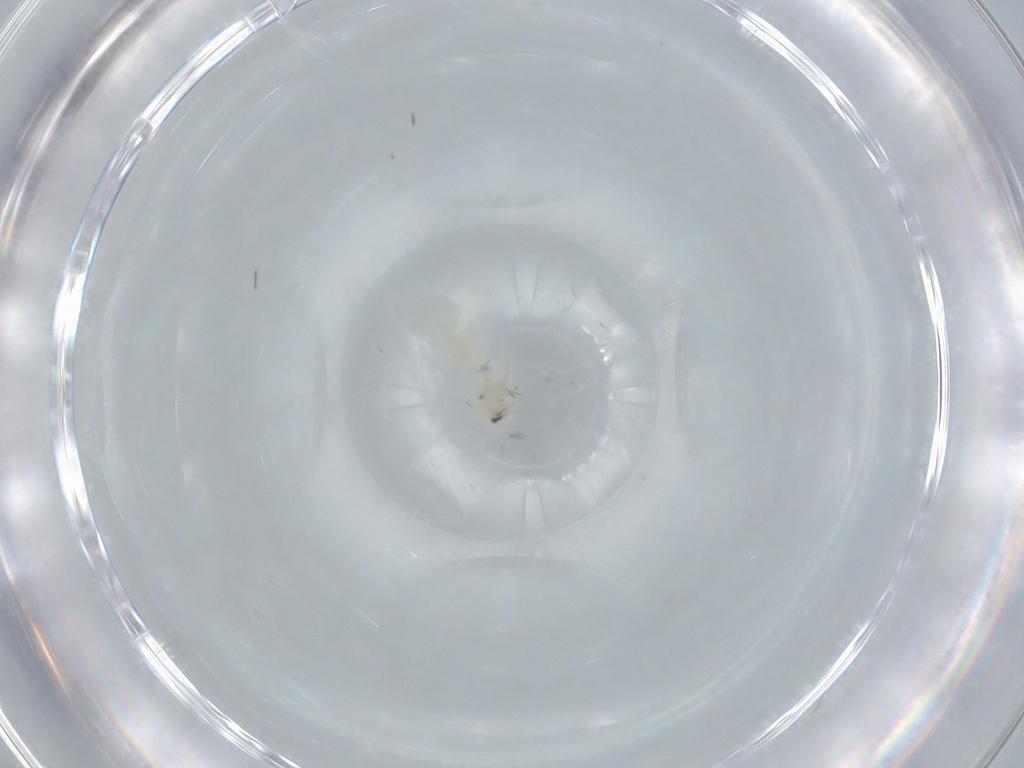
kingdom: Animalia
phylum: Arthropoda
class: Insecta
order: Hemiptera
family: Aleyrodidae
